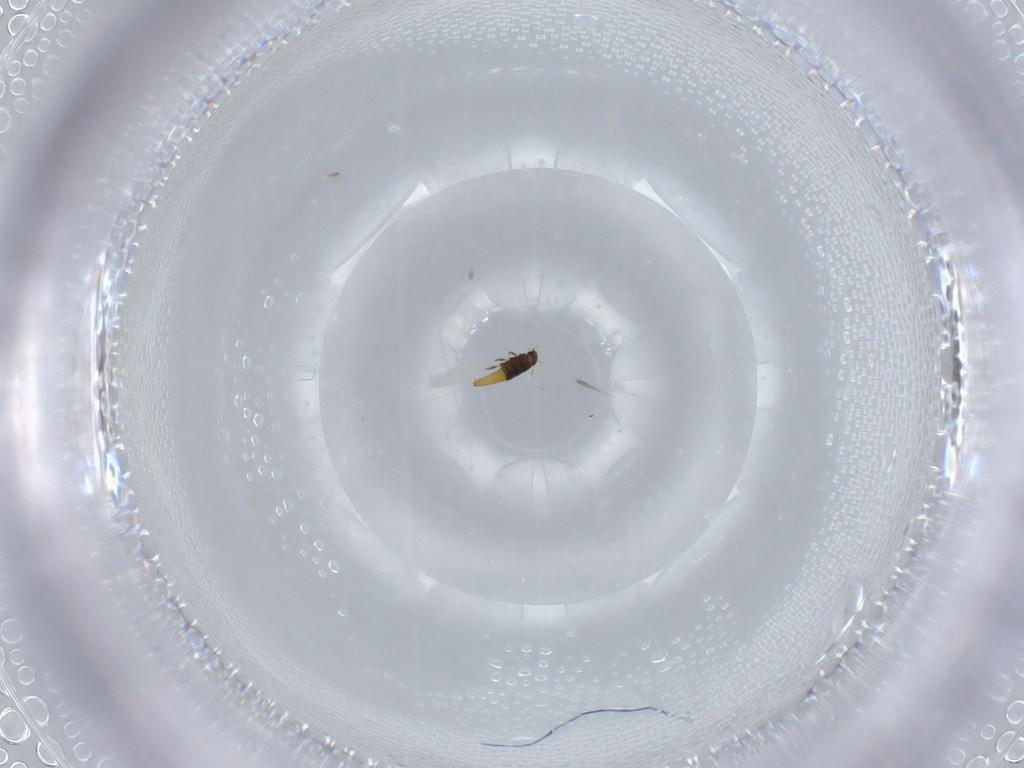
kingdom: Animalia
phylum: Arthropoda
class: Insecta
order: Coleoptera
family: Meloidae
